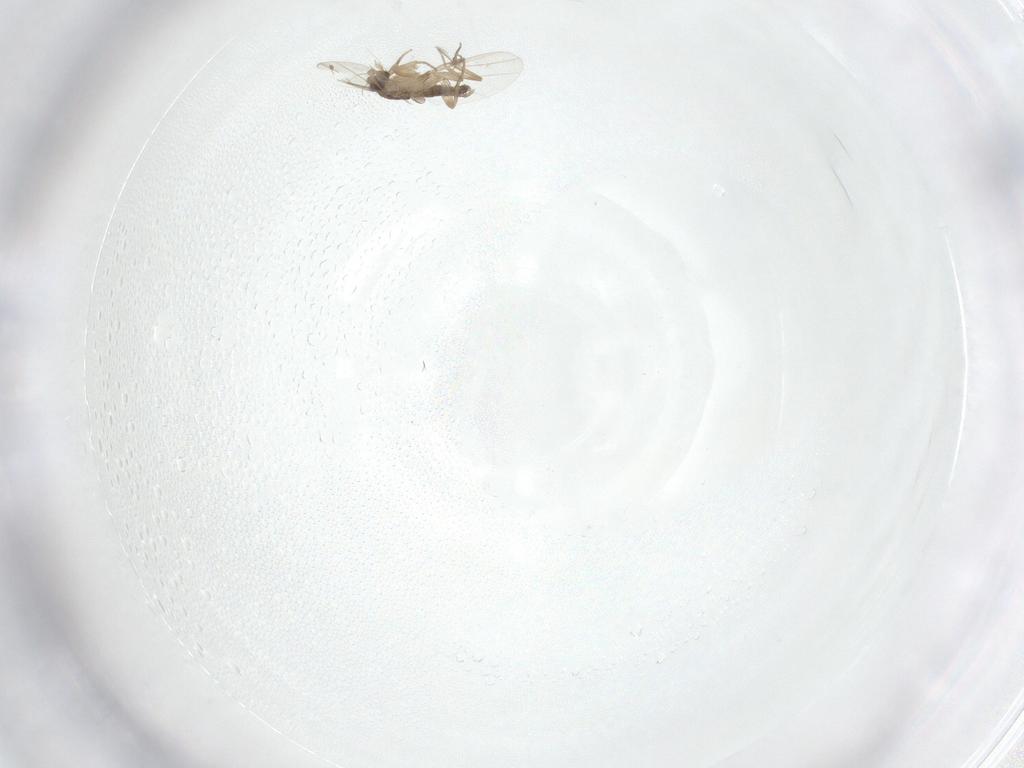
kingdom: Animalia
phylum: Arthropoda
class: Insecta
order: Diptera
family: Phoridae
